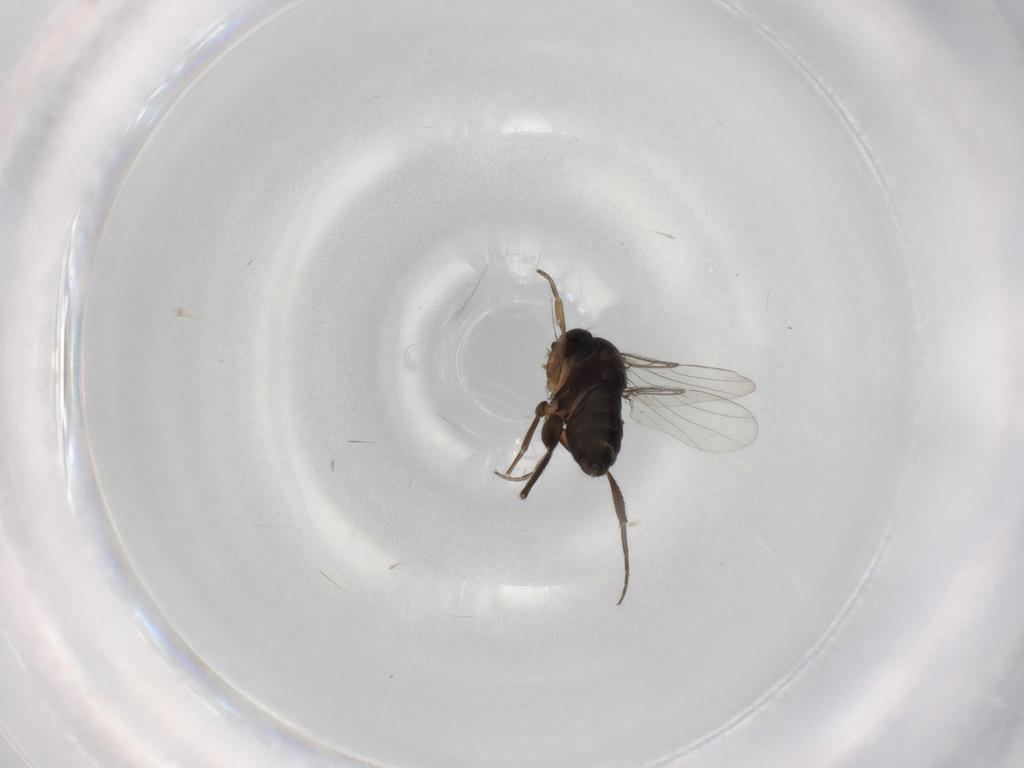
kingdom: Animalia
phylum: Arthropoda
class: Insecta
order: Diptera
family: Phoridae
